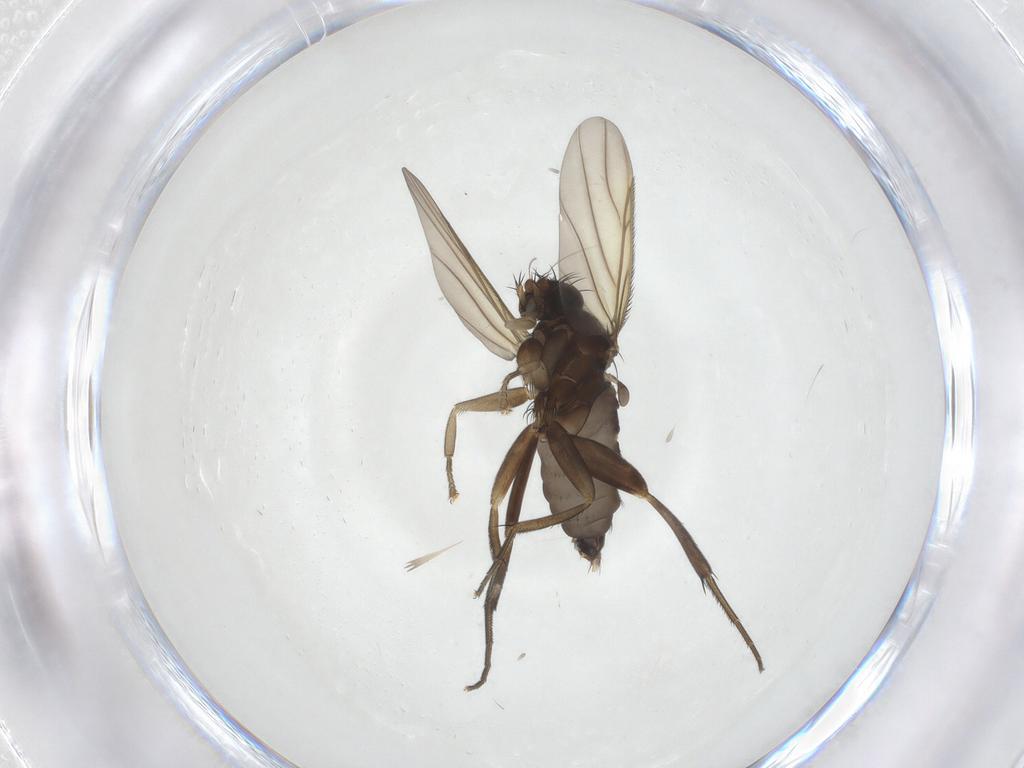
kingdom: Animalia
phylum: Arthropoda
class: Insecta
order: Diptera
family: Phoridae
